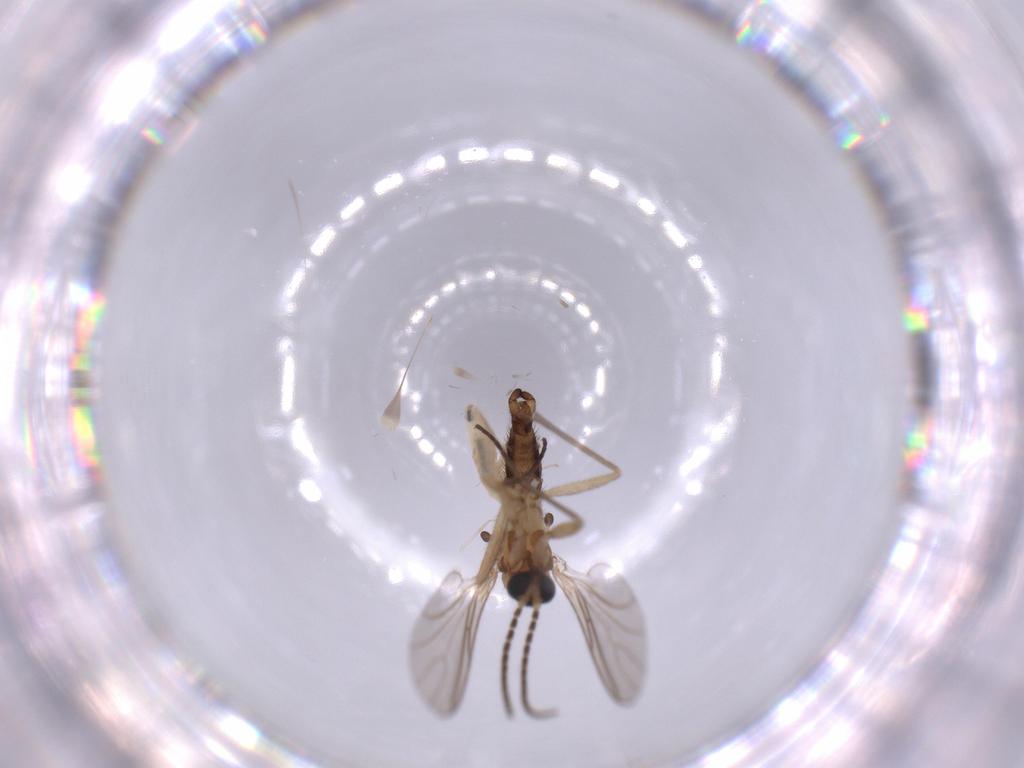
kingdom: Animalia
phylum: Arthropoda
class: Insecta
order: Diptera
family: Sciaridae
